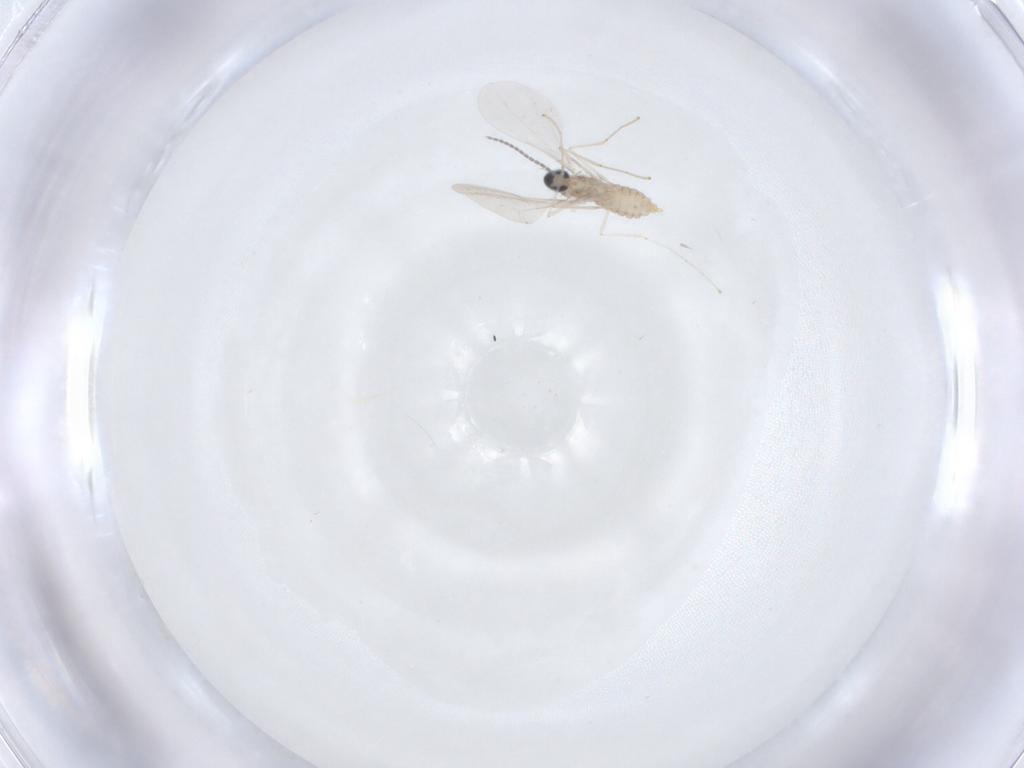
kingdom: Animalia
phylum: Arthropoda
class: Insecta
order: Diptera
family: Cecidomyiidae
